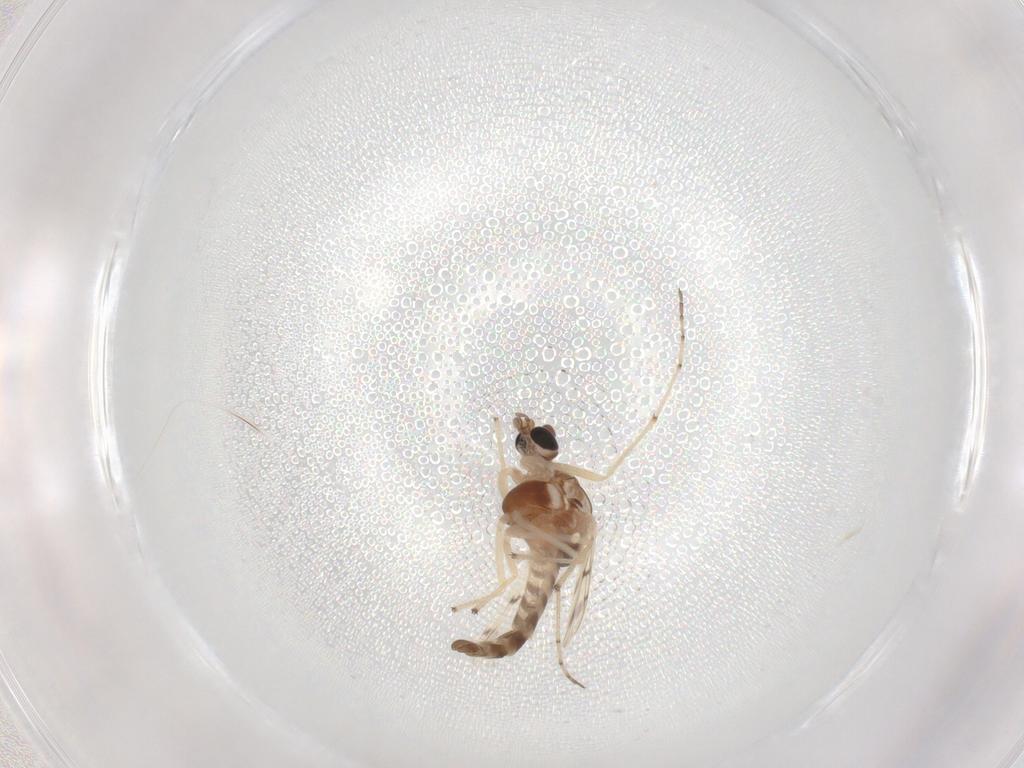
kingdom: Animalia
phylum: Arthropoda
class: Insecta
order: Diptera
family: Chironomidae
